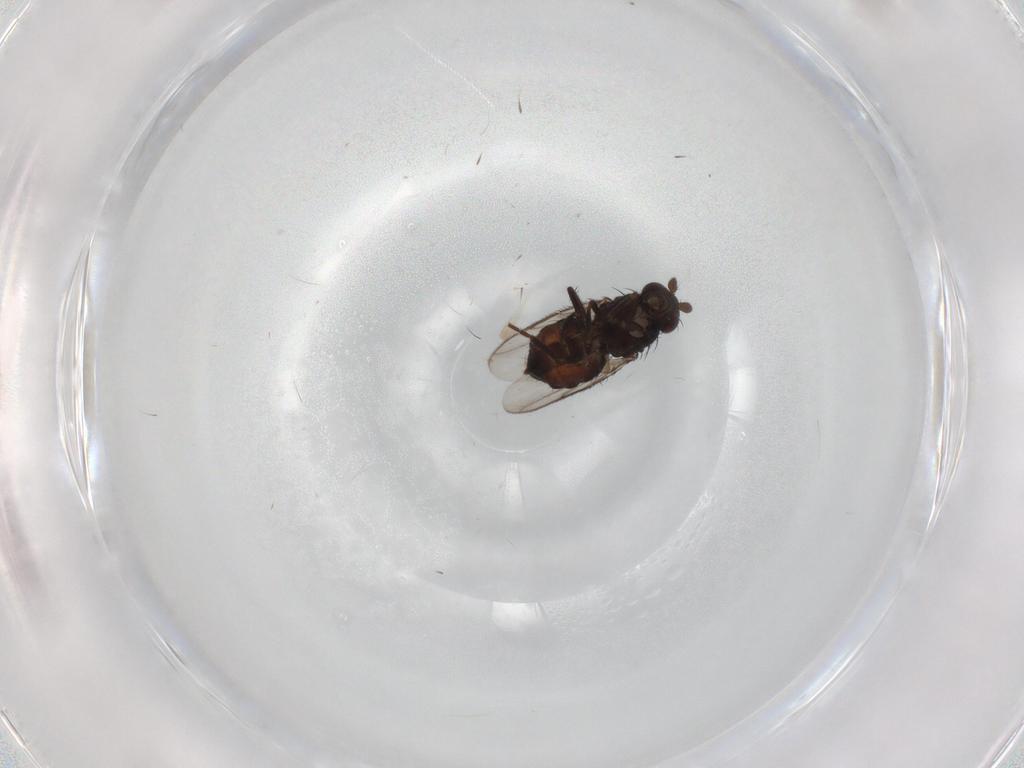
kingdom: Animalia
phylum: Arthropoda
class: Insecta
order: Diptera
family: Sphaeroceridae
